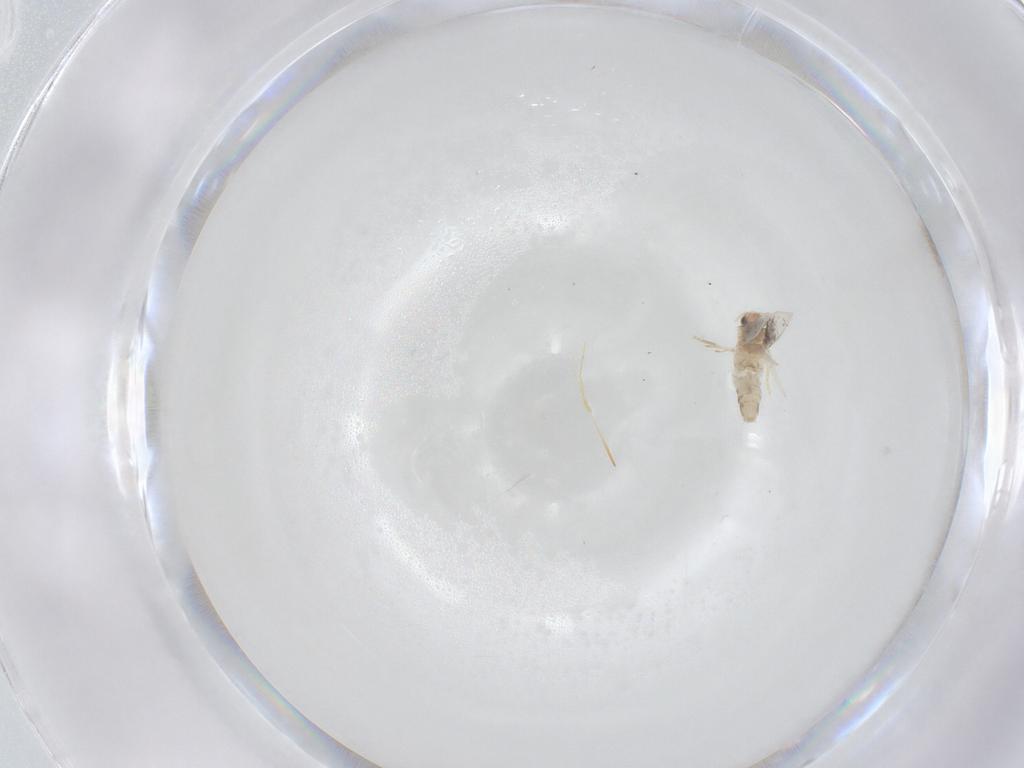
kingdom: Animalia
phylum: Arthropoda
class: Insecta
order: Lepidoptera
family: Nepticulidae
